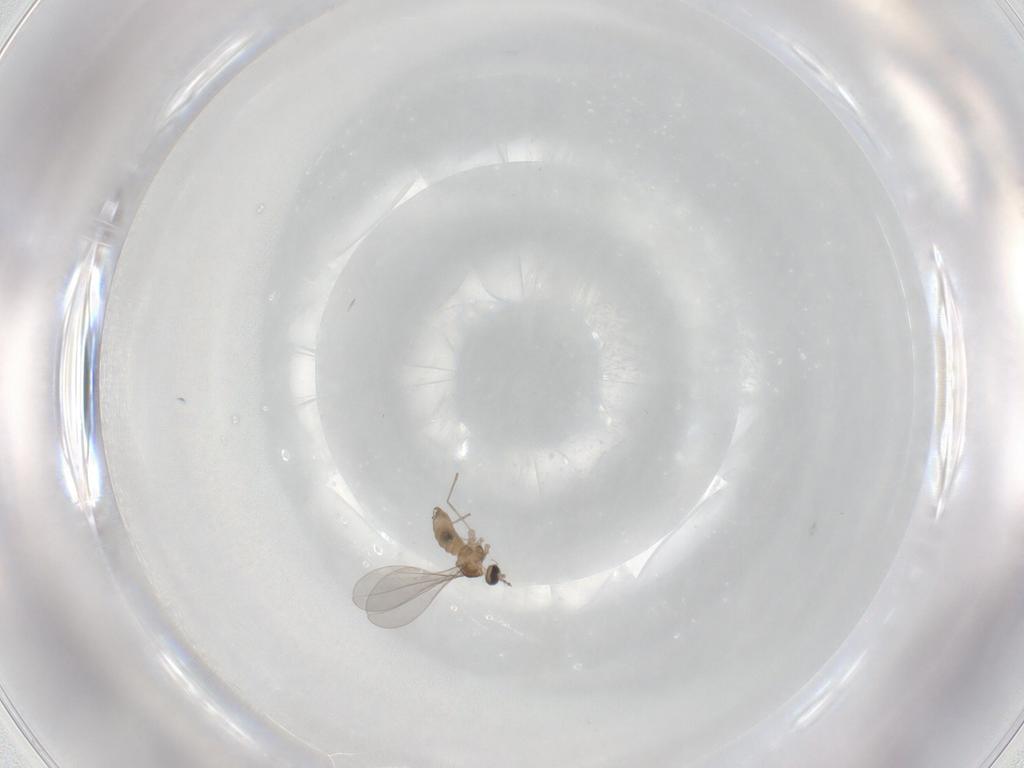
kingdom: Animalia
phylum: Arthropoda
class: Insecta
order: Diptera
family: Cecidomyiidae
